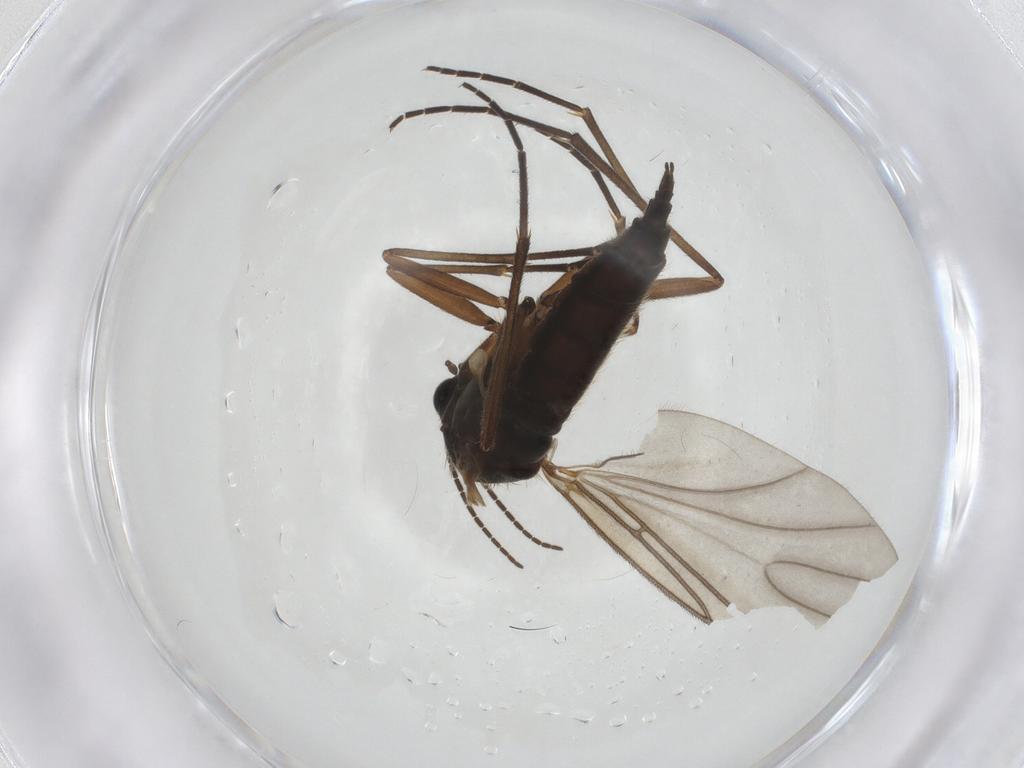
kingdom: Animalia
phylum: Arthropoda
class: Insecta
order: Diptera
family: Sciaridae
